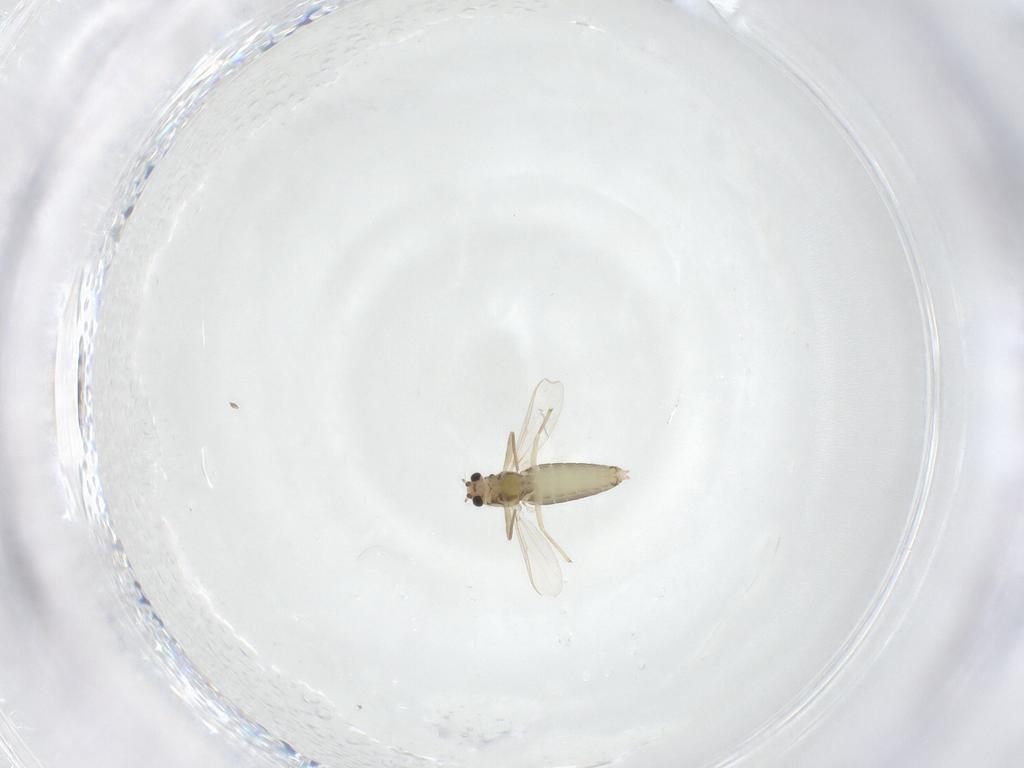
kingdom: Animalia
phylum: Arthropoda
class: Insecta
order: Diptera
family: Chironomidae
